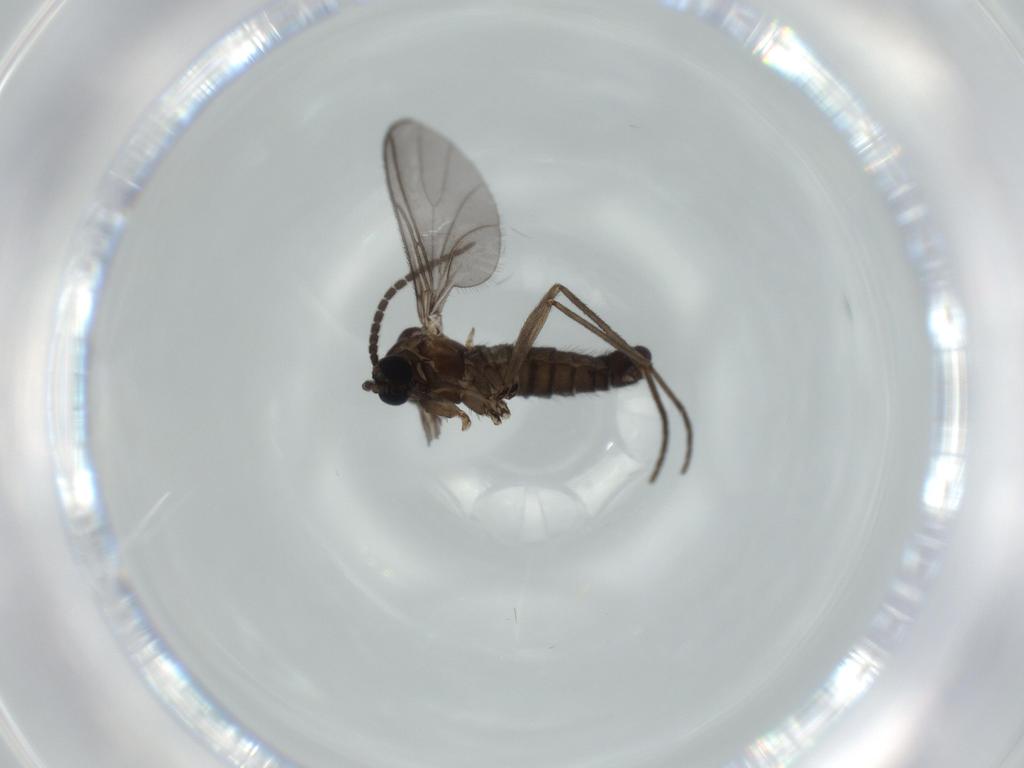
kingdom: Animalia
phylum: Arthropoda
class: Insecta
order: Diptera
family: Sciaridae
